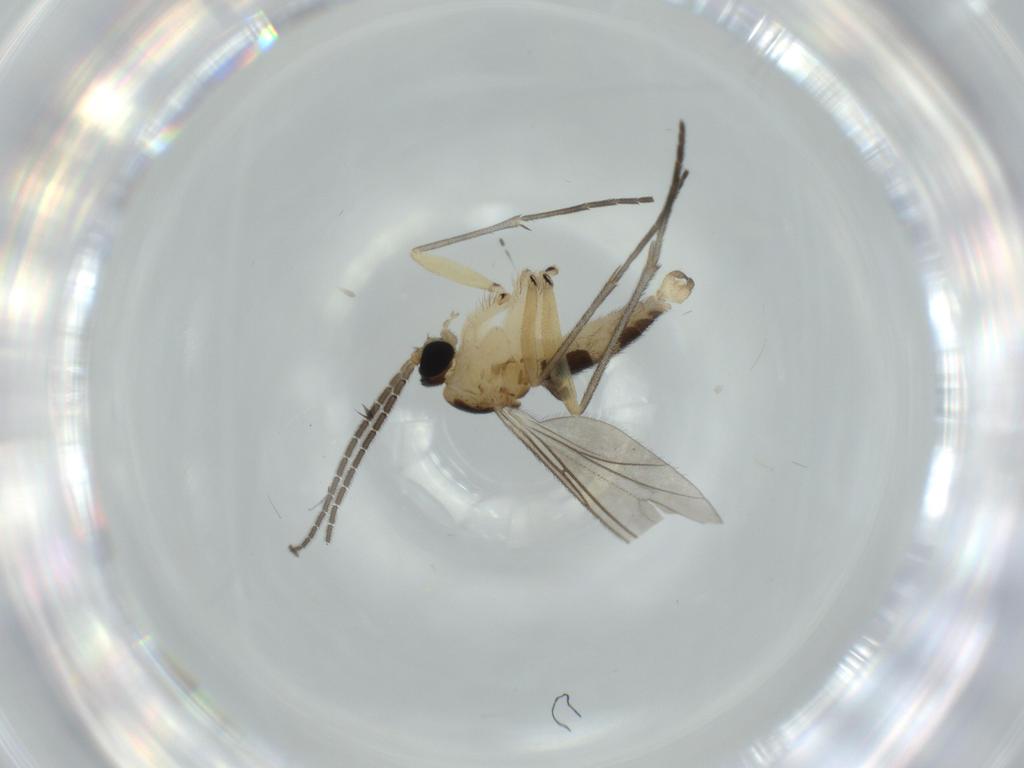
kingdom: Animalia
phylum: Arthropoda
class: Insecta
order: Diptera
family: Sciaridae
